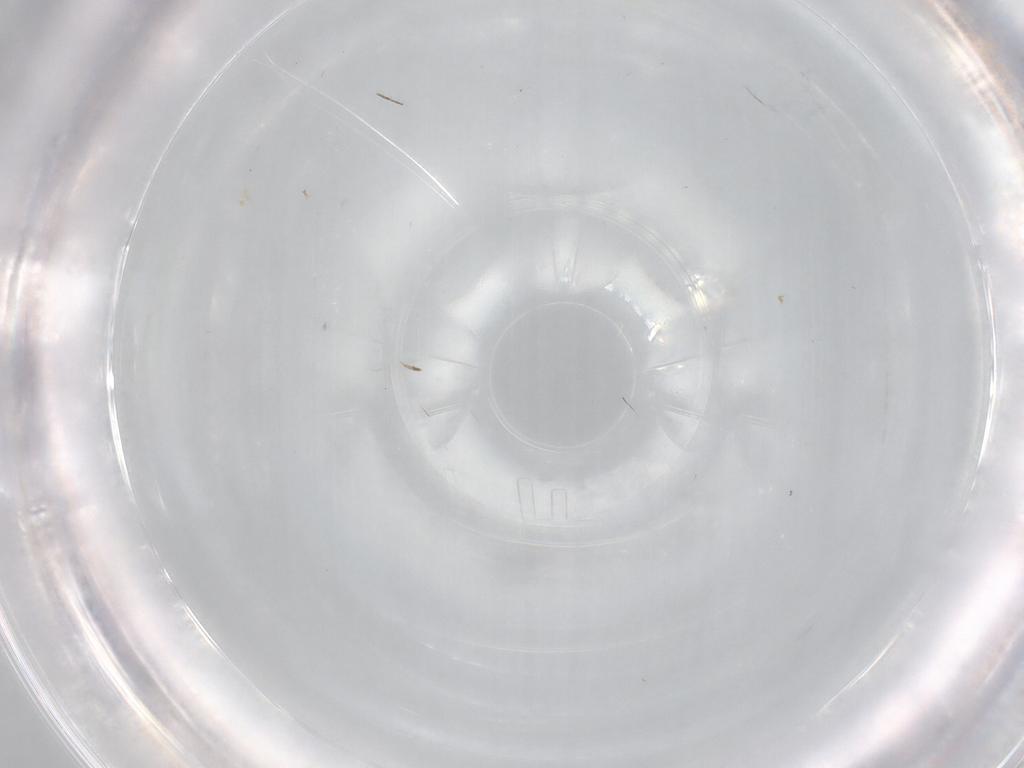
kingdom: Animalia
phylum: Arthropoda
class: Insecta
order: Diptera
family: Chironomidae
